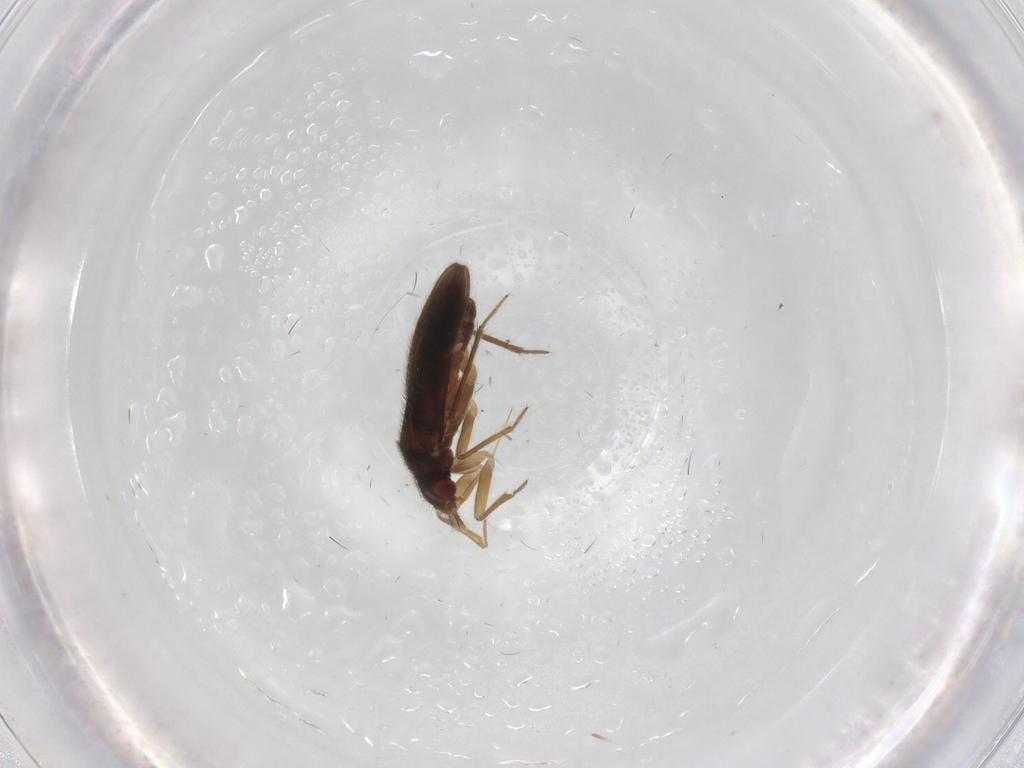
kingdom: Animalia
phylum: Arthropoda
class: Insecta
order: Hemiptera
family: Ceratocombidae
